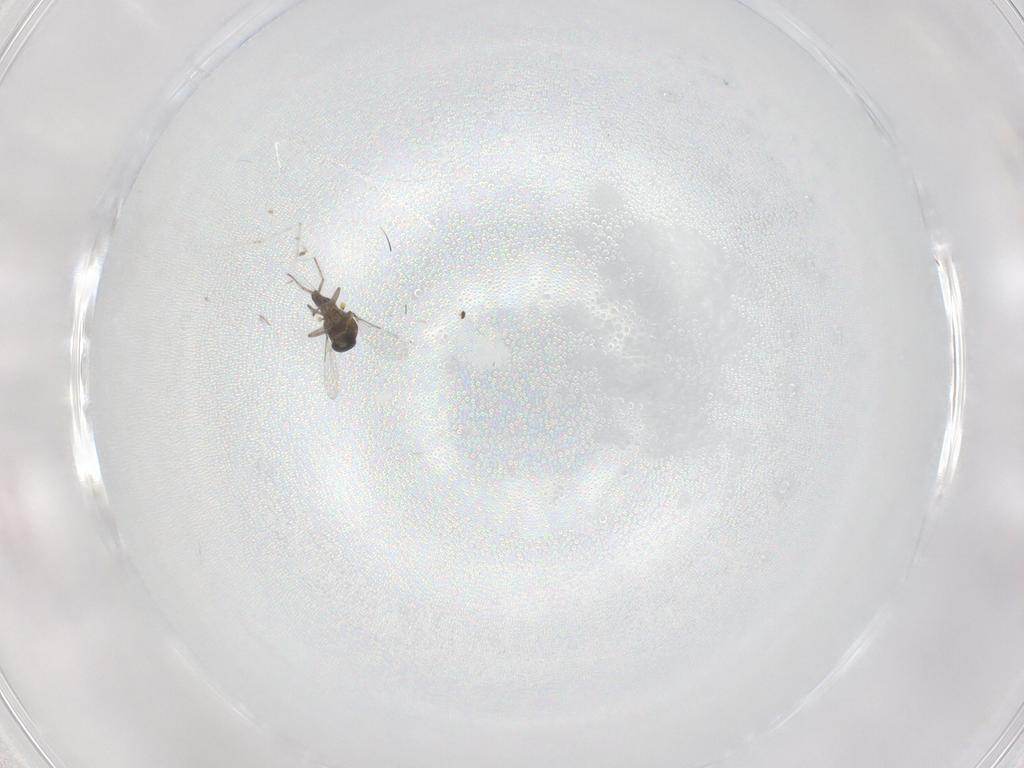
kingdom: Animalia
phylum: Arthropoda
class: Insecta
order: Diptera
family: Ceratopogonidae
